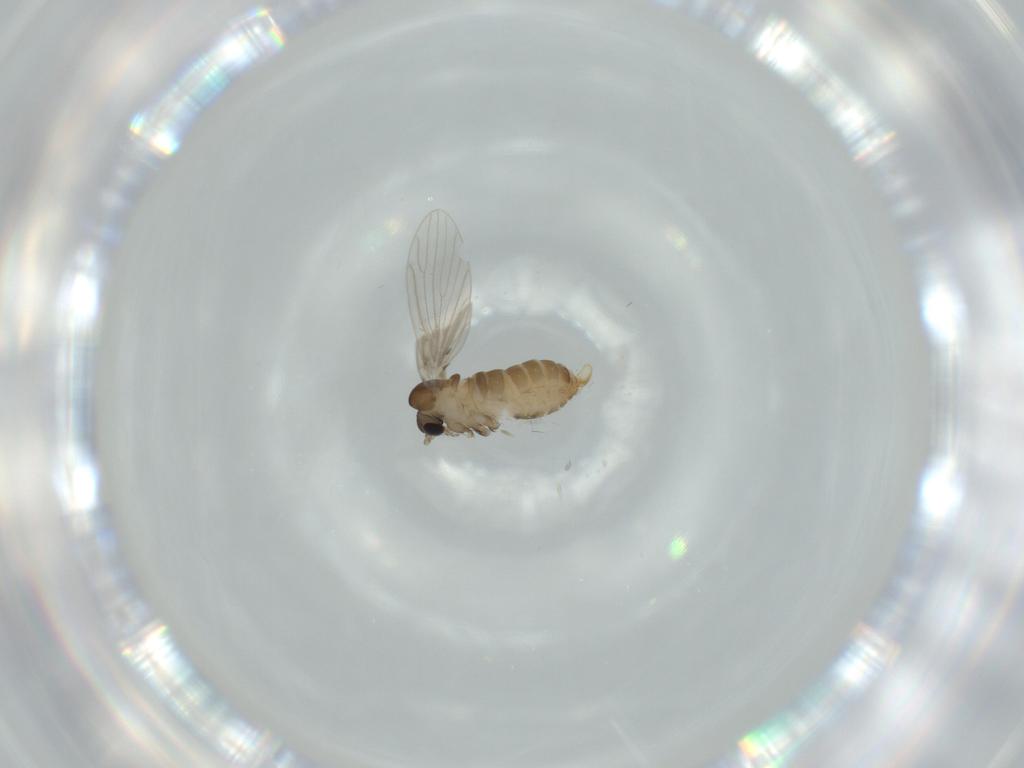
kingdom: Animalia
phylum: Arthropoda
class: Insecta
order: Diptera
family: Dolichopodidae
